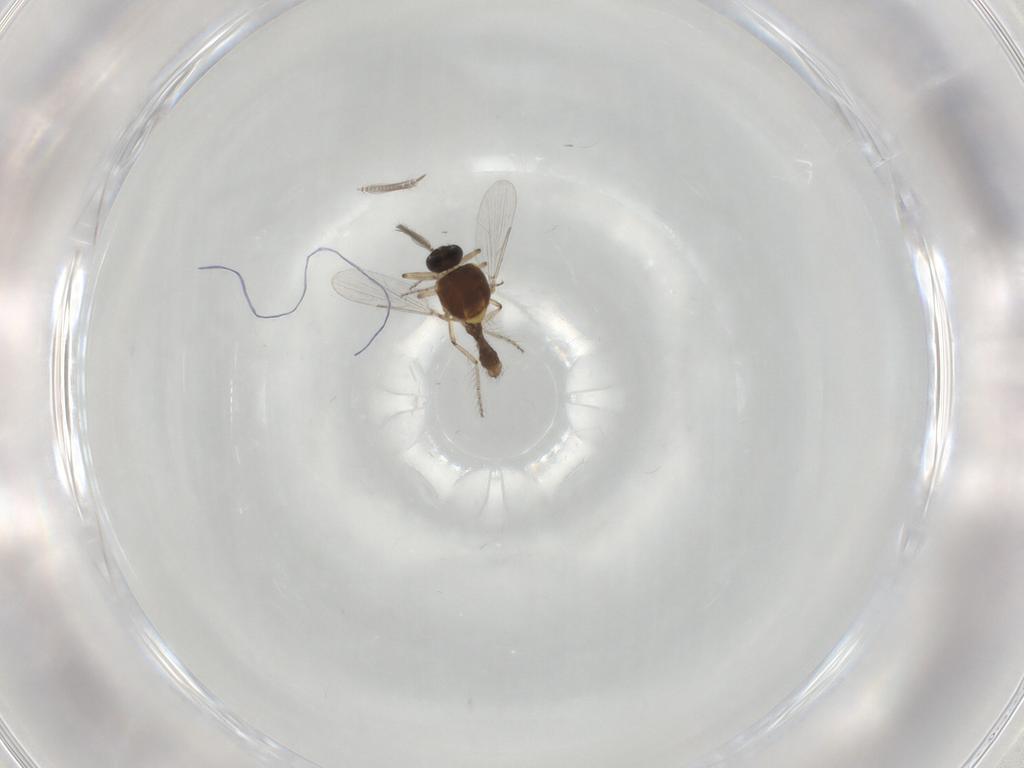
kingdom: Animalia
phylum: Arthropoda
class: Insecta
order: Diptera
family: Ceratopogonidae
